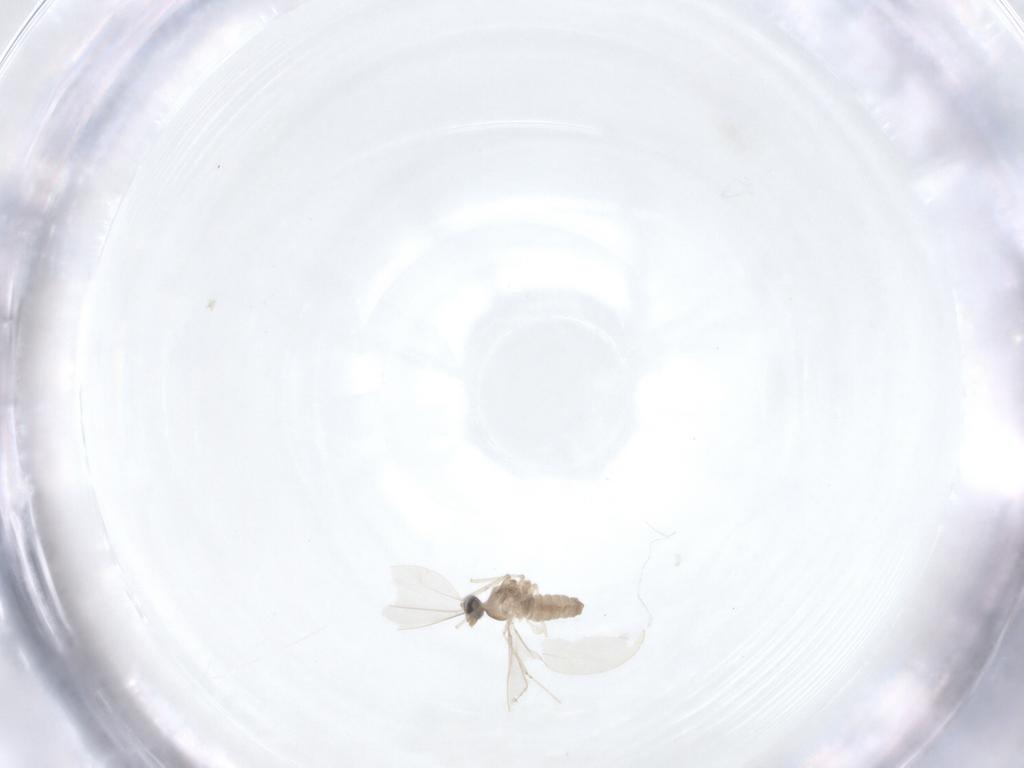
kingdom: Animalia
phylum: Arthropoda
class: Insecta
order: Diptera
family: Cecidomyiidae
